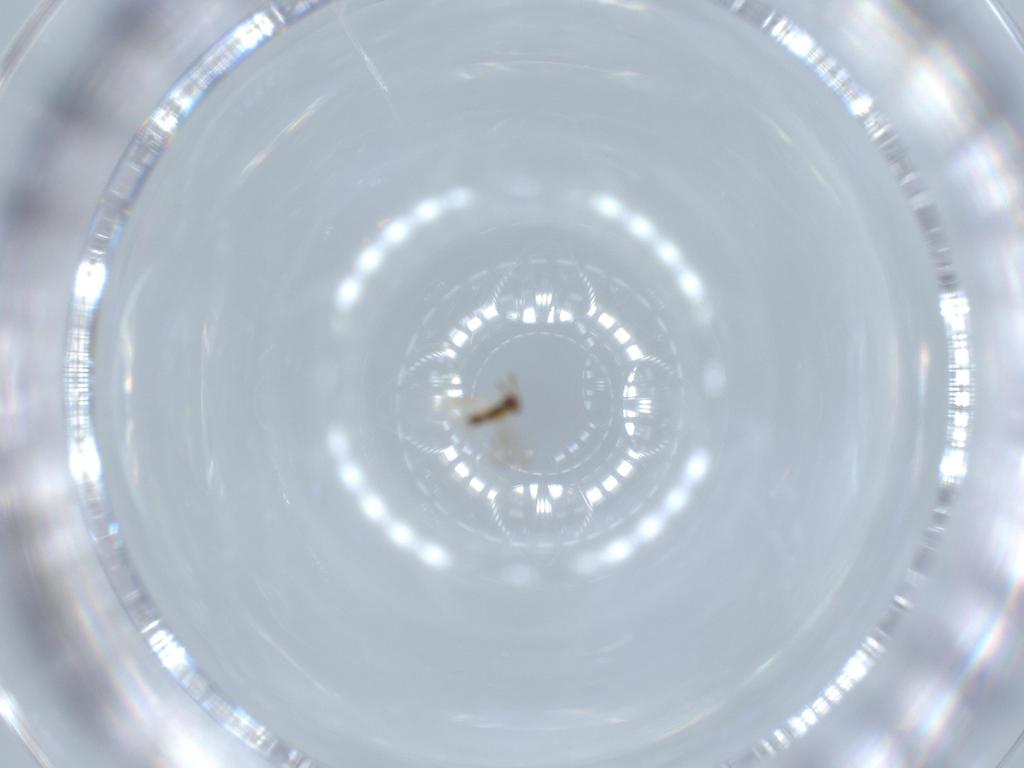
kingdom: Animalia
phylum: Arthropoda
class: Insecta
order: Hymenoptera
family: Aphelinidae
